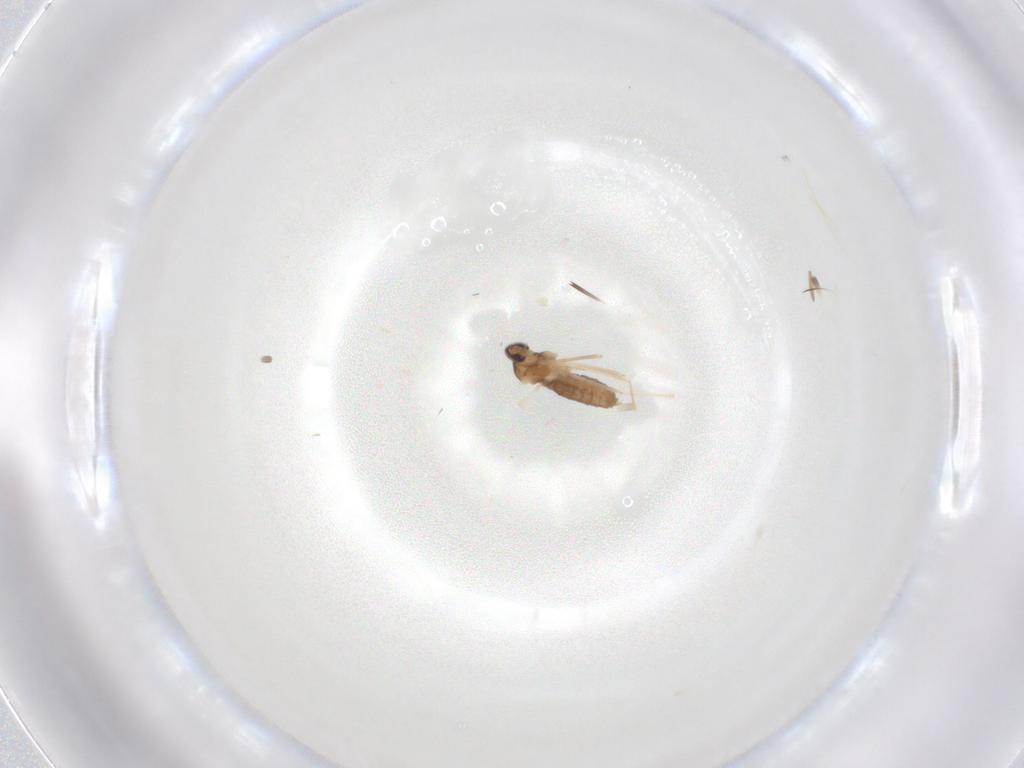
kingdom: Animalia
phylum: Arthropoda
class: Insecta
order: Diptera
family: Cecidomyiidae
